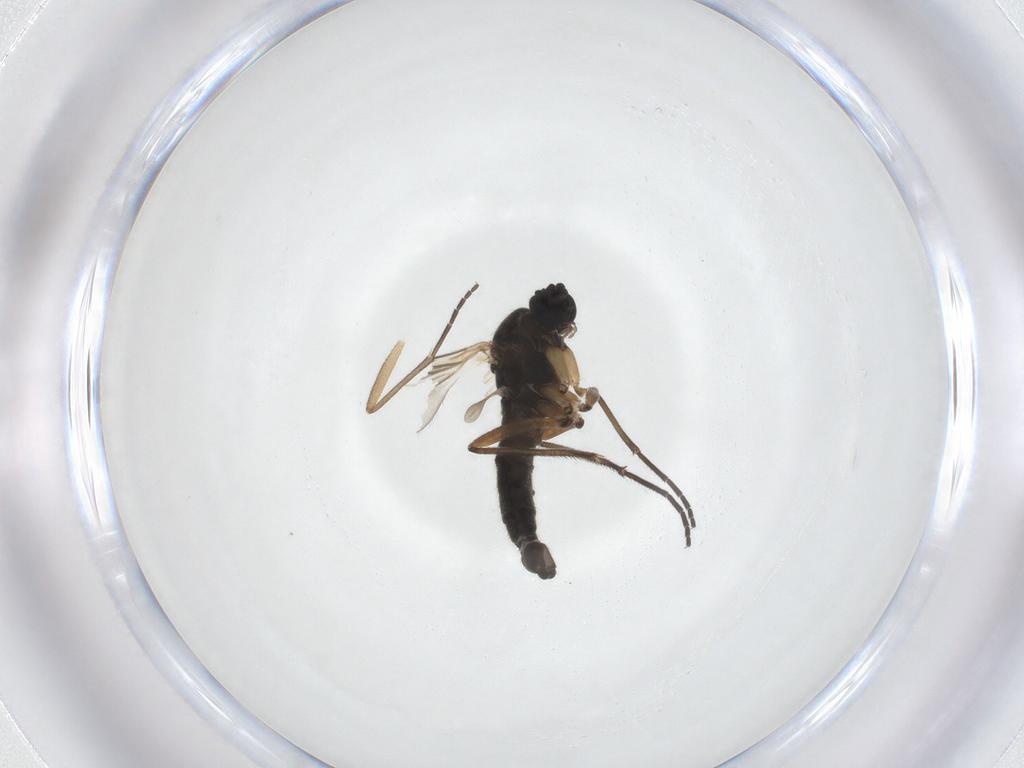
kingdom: Animalia
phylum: Arthropoda
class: Insecta
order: Diptera
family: Sciaridae
